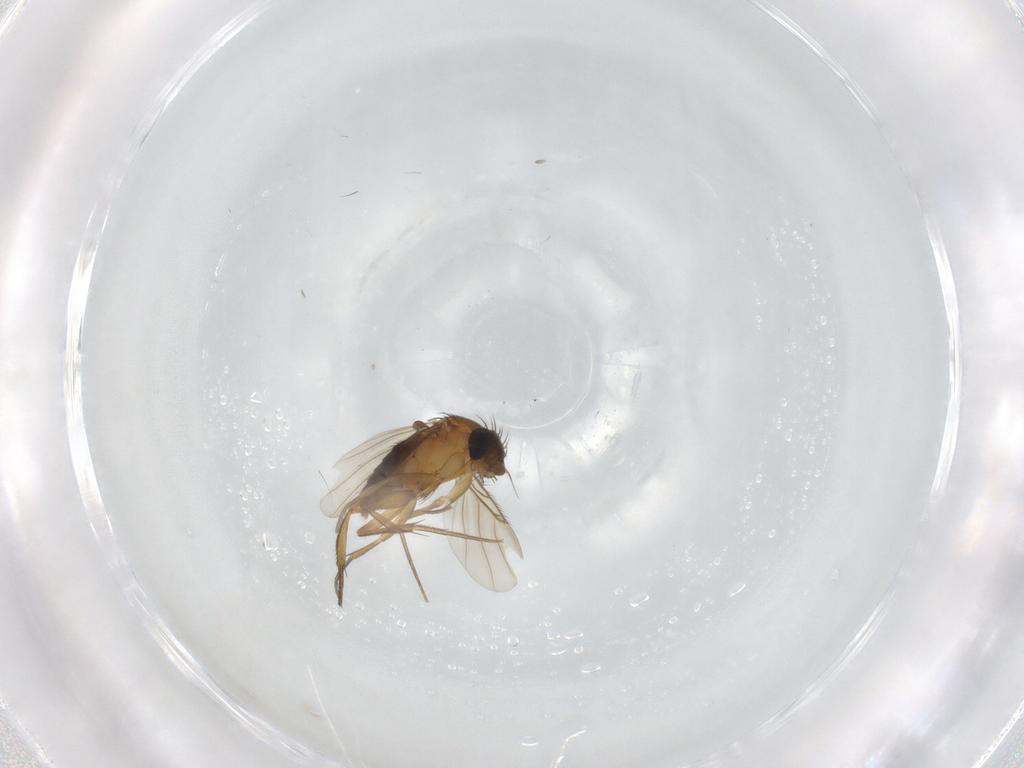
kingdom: Animalia
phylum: Arthropoda
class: Insecta
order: Diptera
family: Phoridae
